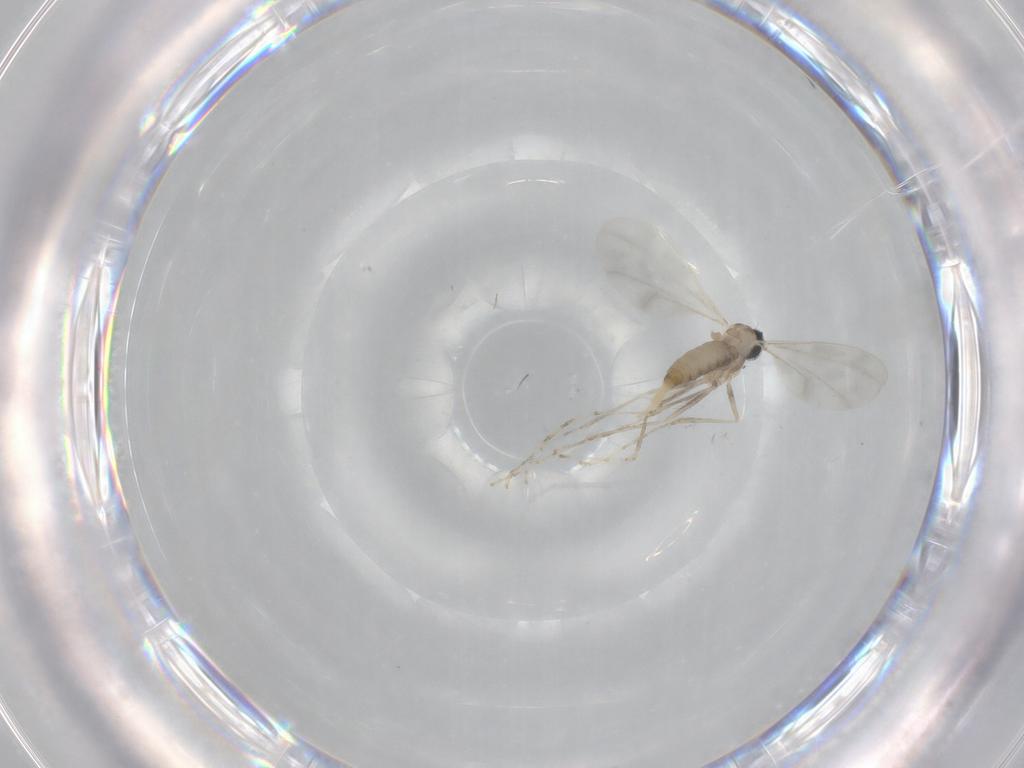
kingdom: Animalia
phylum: Arthropoda
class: Insecta
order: Diptera
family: Cecidomyiidae
